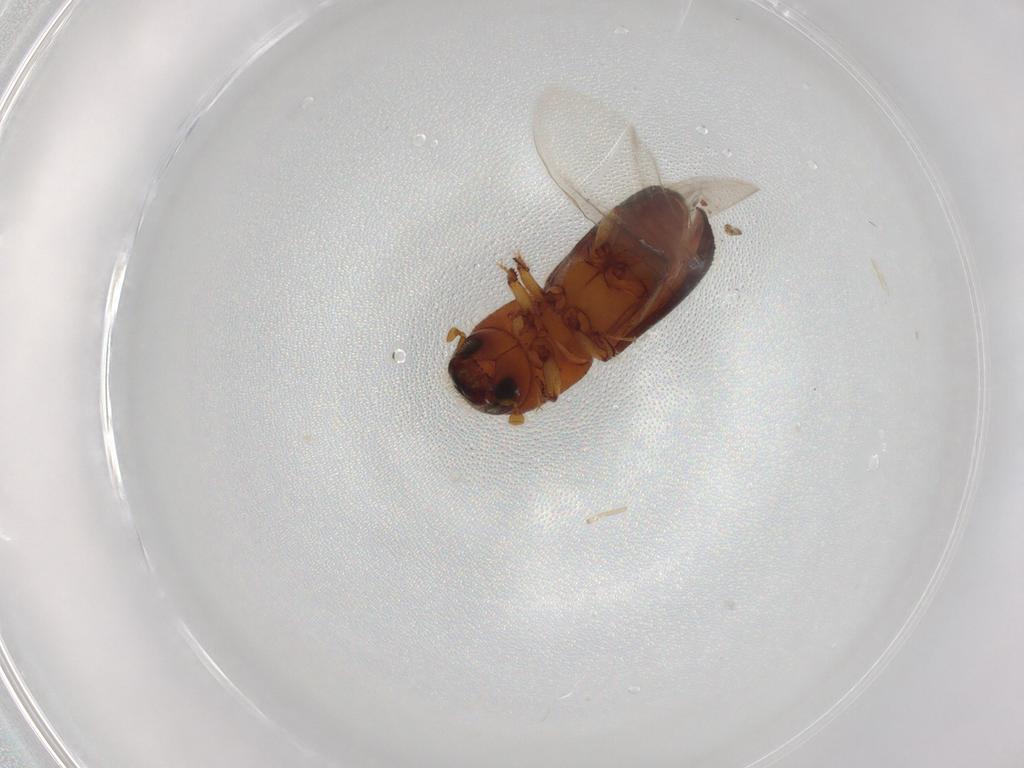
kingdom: Animalia
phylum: Arthropoda
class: Insecta
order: Coleoptera
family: Curculionidae
